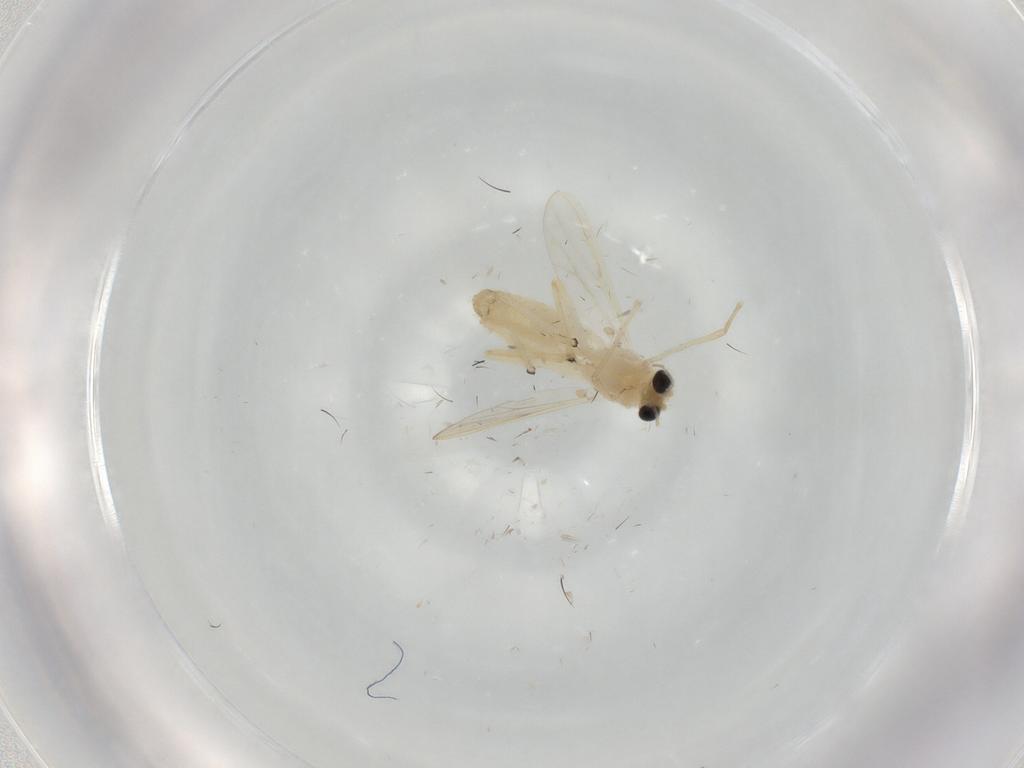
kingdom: Animalia
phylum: Arthropoda
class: Insecta
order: Diptera
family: Chironomidae
